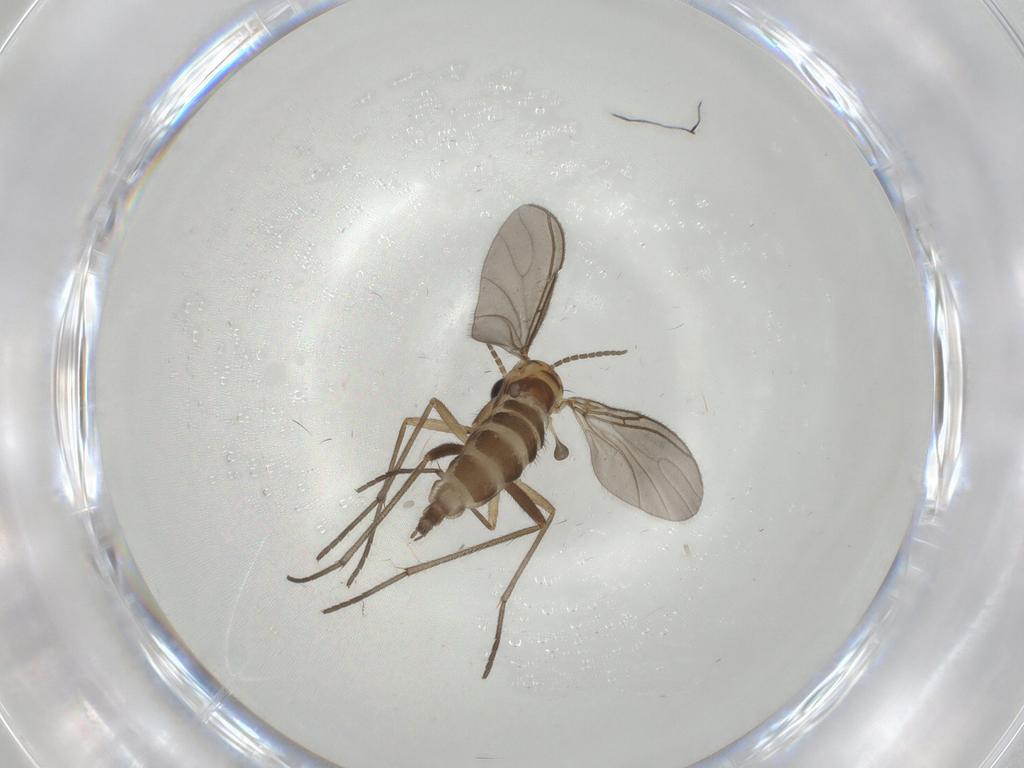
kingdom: Animalia
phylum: Arthropoda
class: Insecta
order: Diptera
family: Sciaridae
